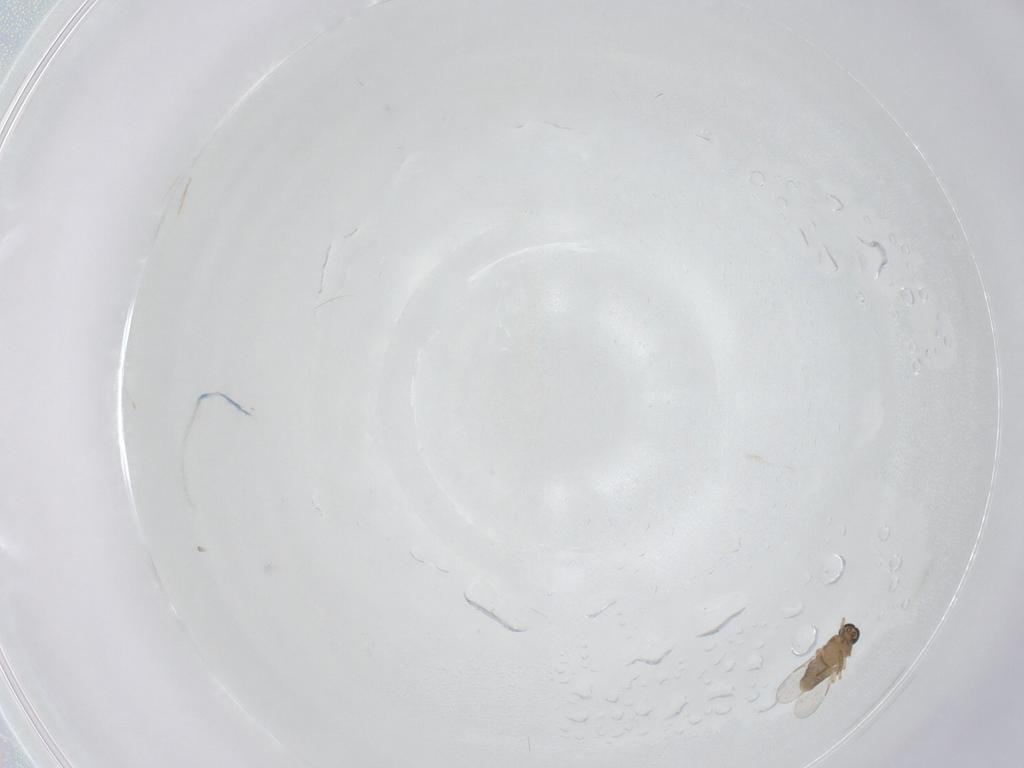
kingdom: Animalia
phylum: Arthropoda
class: Insecta
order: Diptera
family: Ceratopogonidae
